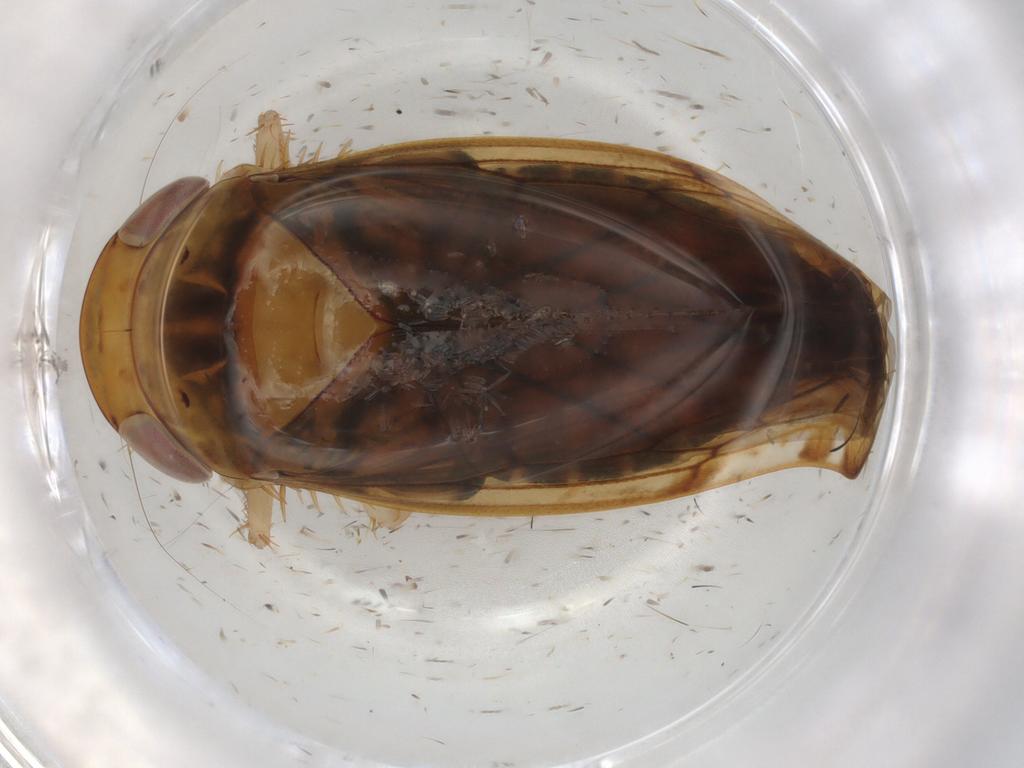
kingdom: Animalia
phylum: Arthropoda
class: Insecta
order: Hemiptera
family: Cicadellidae
